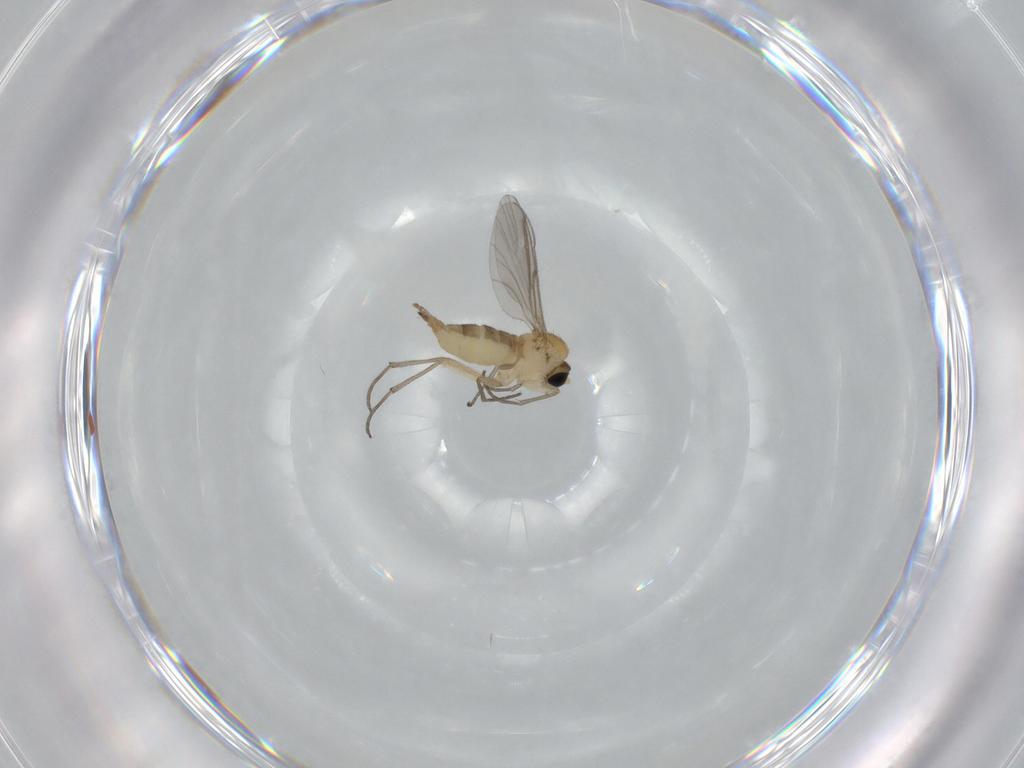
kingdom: Animalia
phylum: Arthropoda
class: Insecta
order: Diptera
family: Sciaridae
